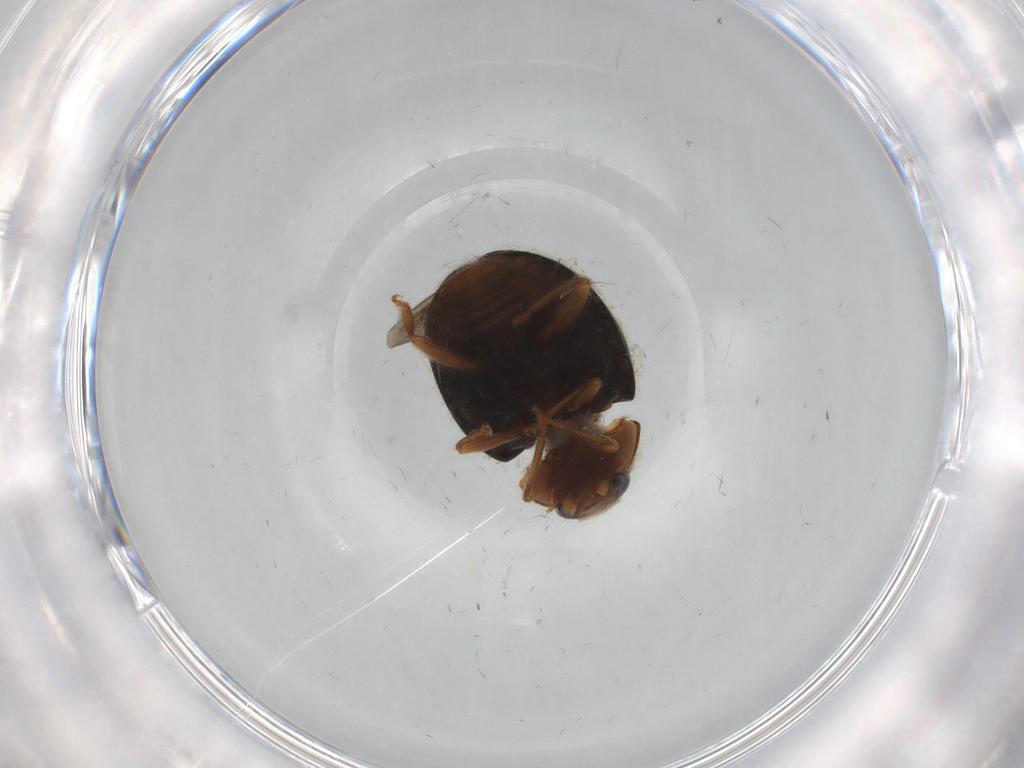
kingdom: Animalia
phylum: Arthropoda
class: Insecta
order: Coleoptera
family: Coccinellidae
